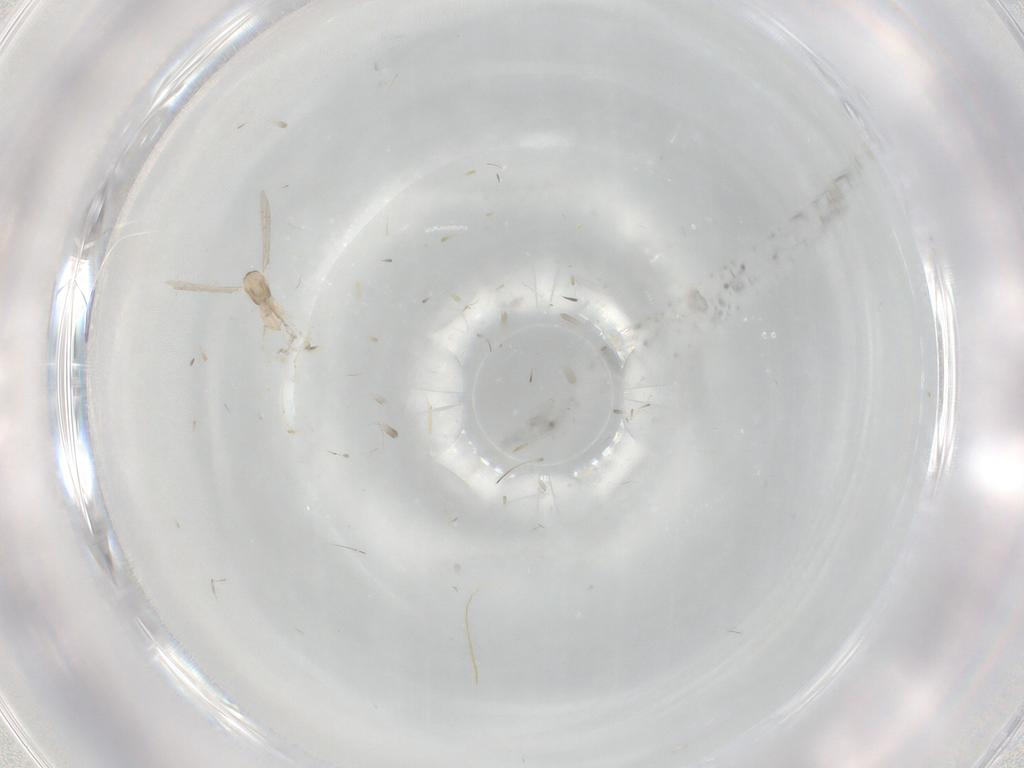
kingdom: Animalia
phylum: Arthropoda
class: Insecta
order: Diptera
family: Cecidomyiidae
